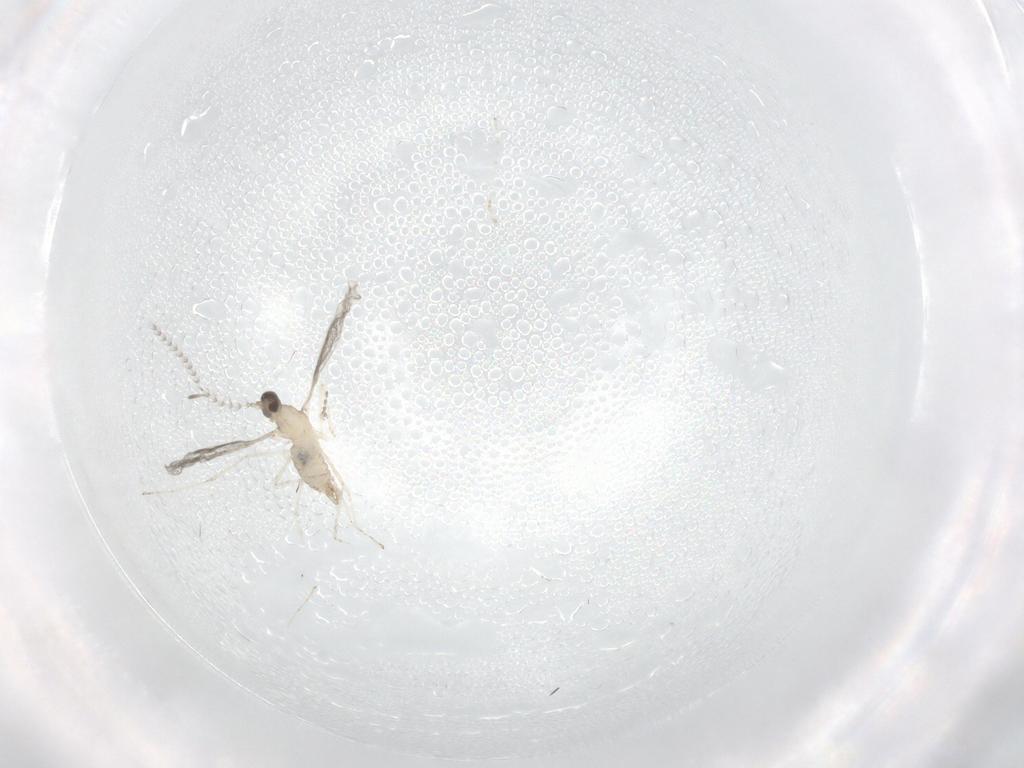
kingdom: Animalia
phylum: Arthropoda
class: Insecta
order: Diptera
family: Cecidomyiidae
